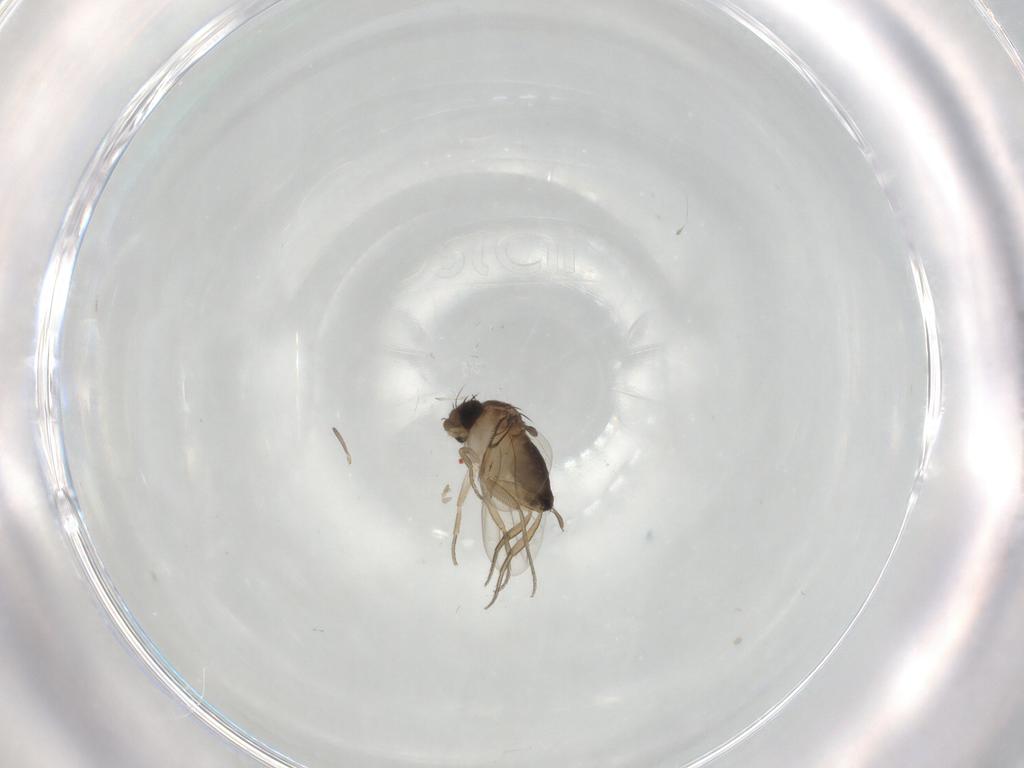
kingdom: Animalia
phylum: Arthropoda
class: Insecta
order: Diptera
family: Phoridae
